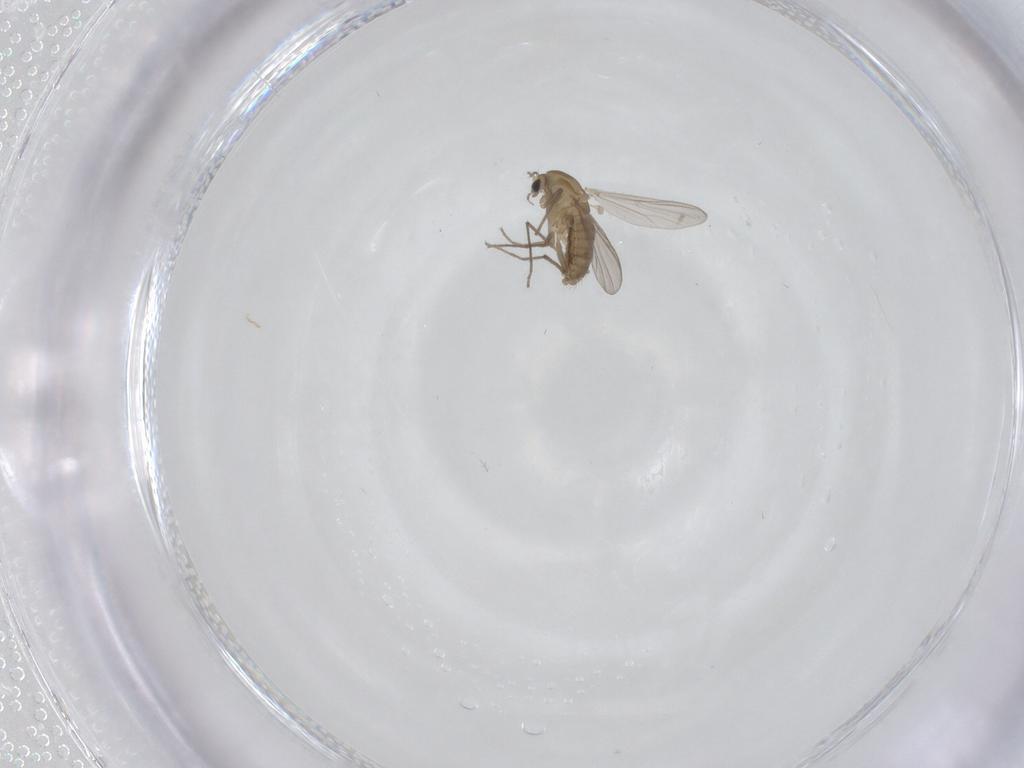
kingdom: Animalia
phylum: Arthropoda
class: Insecta
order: Diptera
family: Chironomidae
